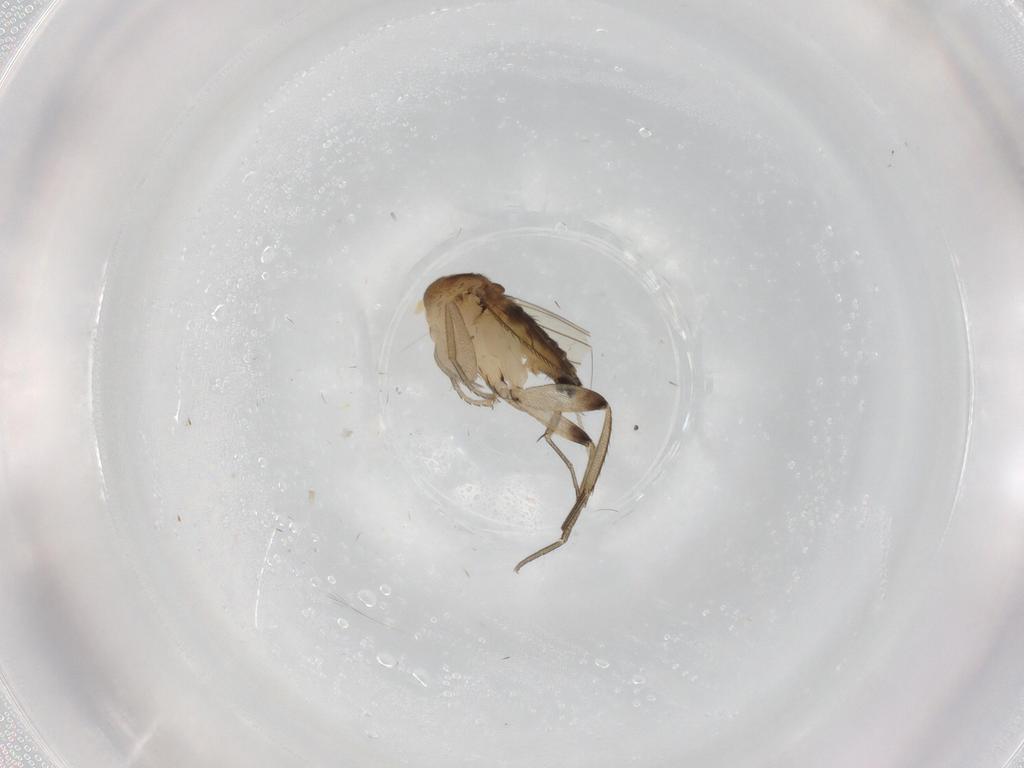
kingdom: Animalia
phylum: Arthropoda
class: Insecta
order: Diptera
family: Phoridae
